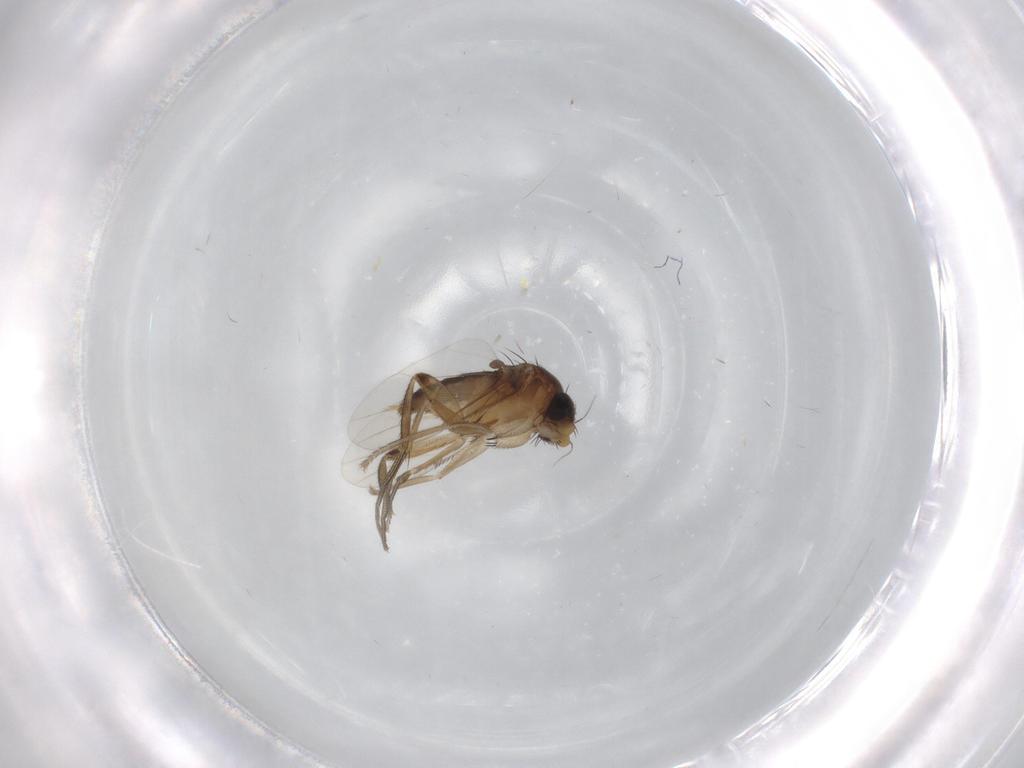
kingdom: Animalia
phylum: Arthropoda
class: Insecta
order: Diptera
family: Phoridae
